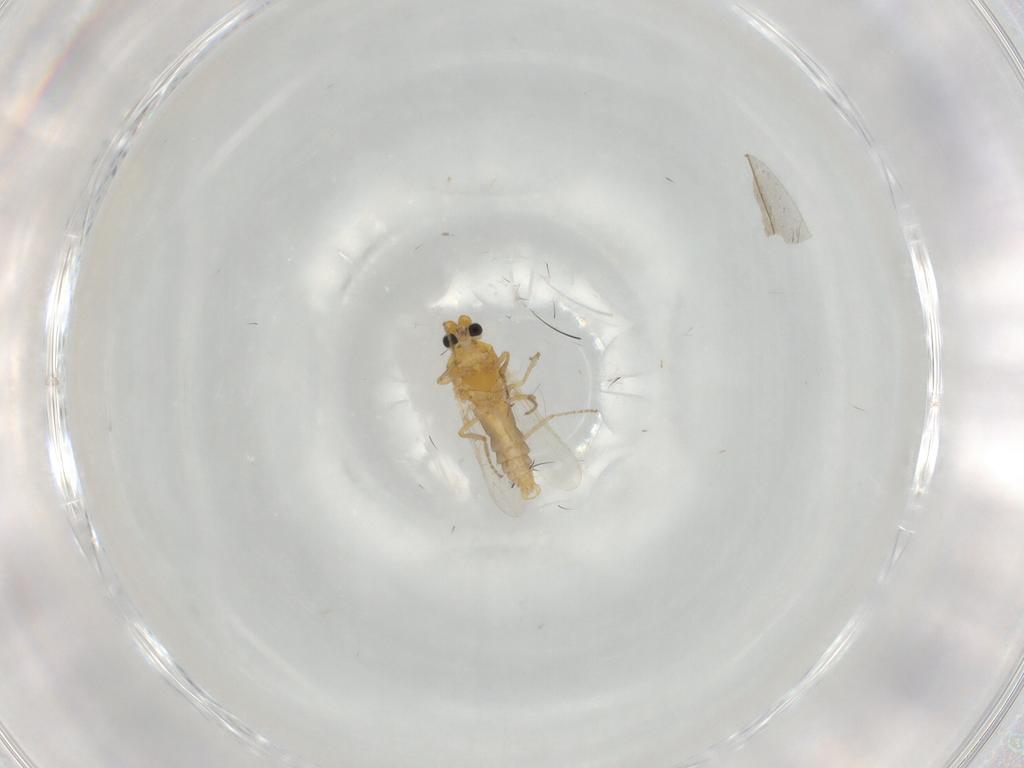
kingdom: Animalia
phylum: Arthropoda
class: Insecta
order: Diptera
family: Ceratopogonidae
